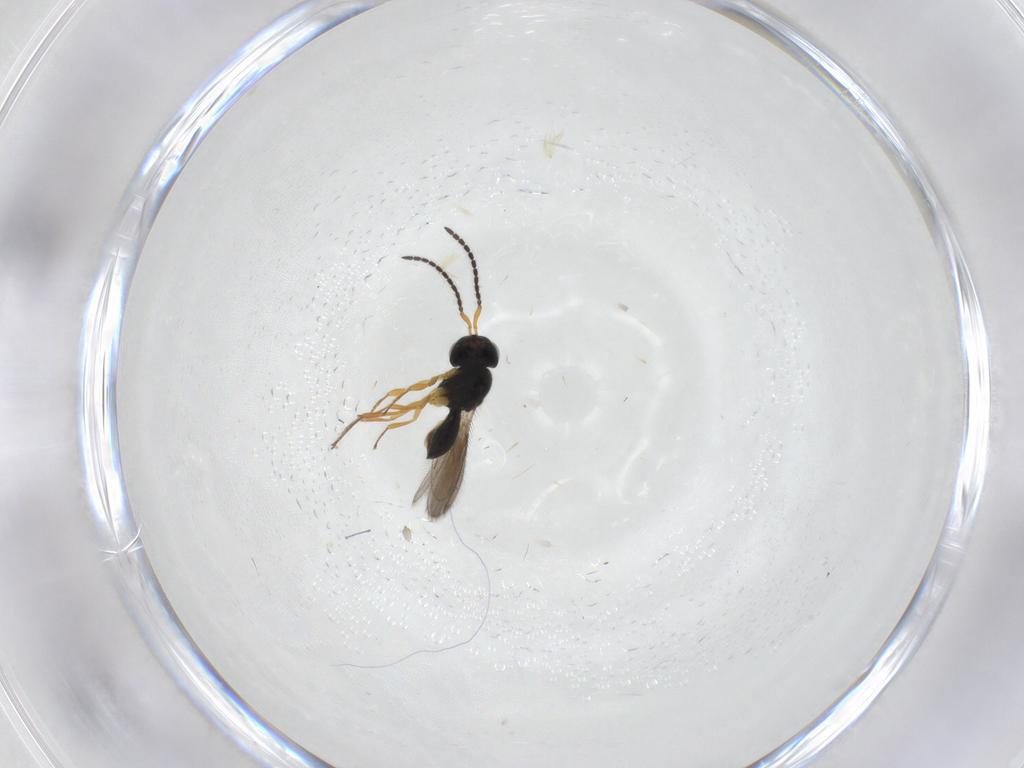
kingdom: Animalia
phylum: Arthropoda
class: Insecta
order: Hymenoptera
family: Scelionidae
